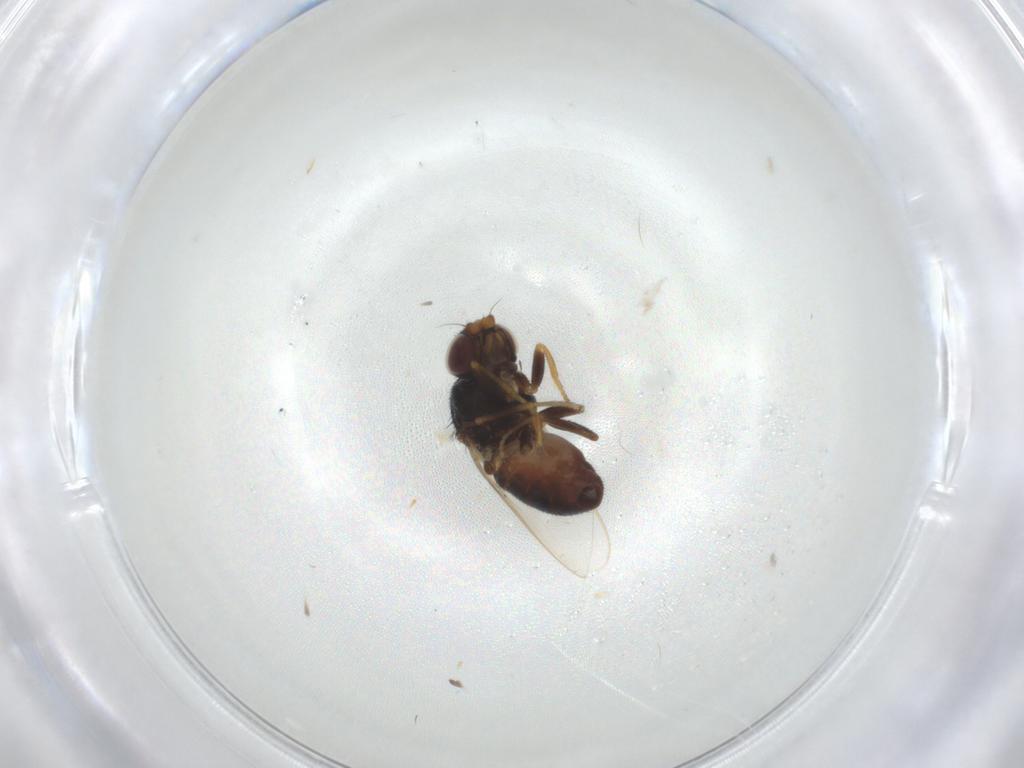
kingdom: Animalia
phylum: Arthropoda
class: Insecta
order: Diptera
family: Chloropidae
